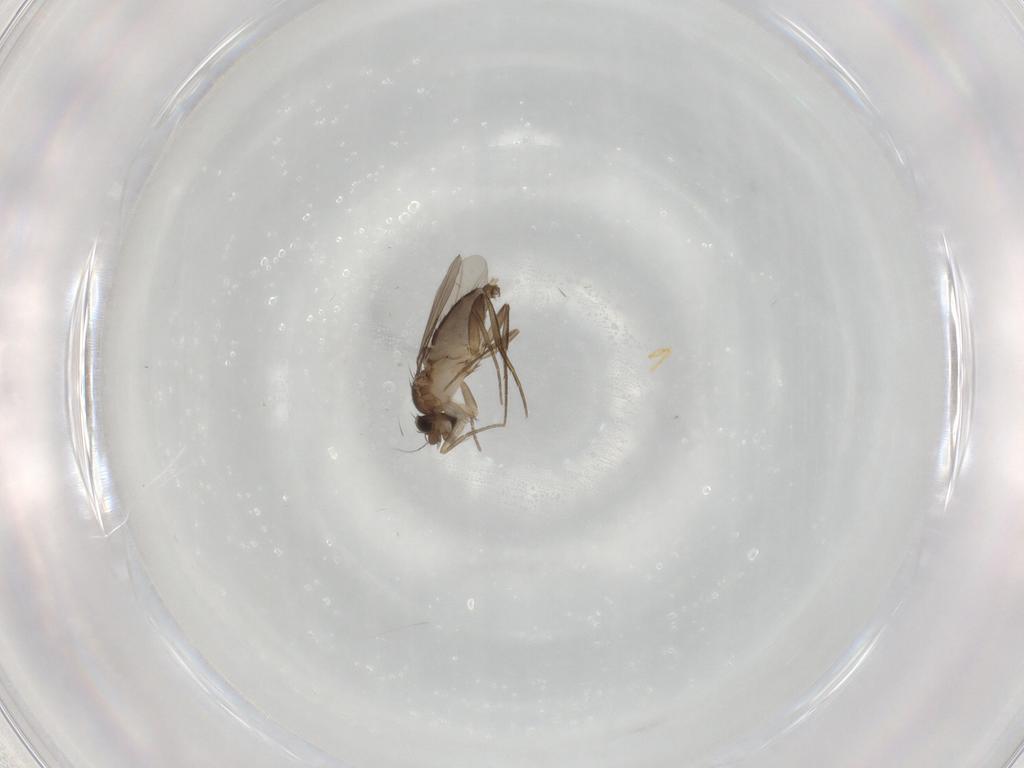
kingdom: Animalia
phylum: Arthropoda
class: Insecta
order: Diptera
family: Phoridae
